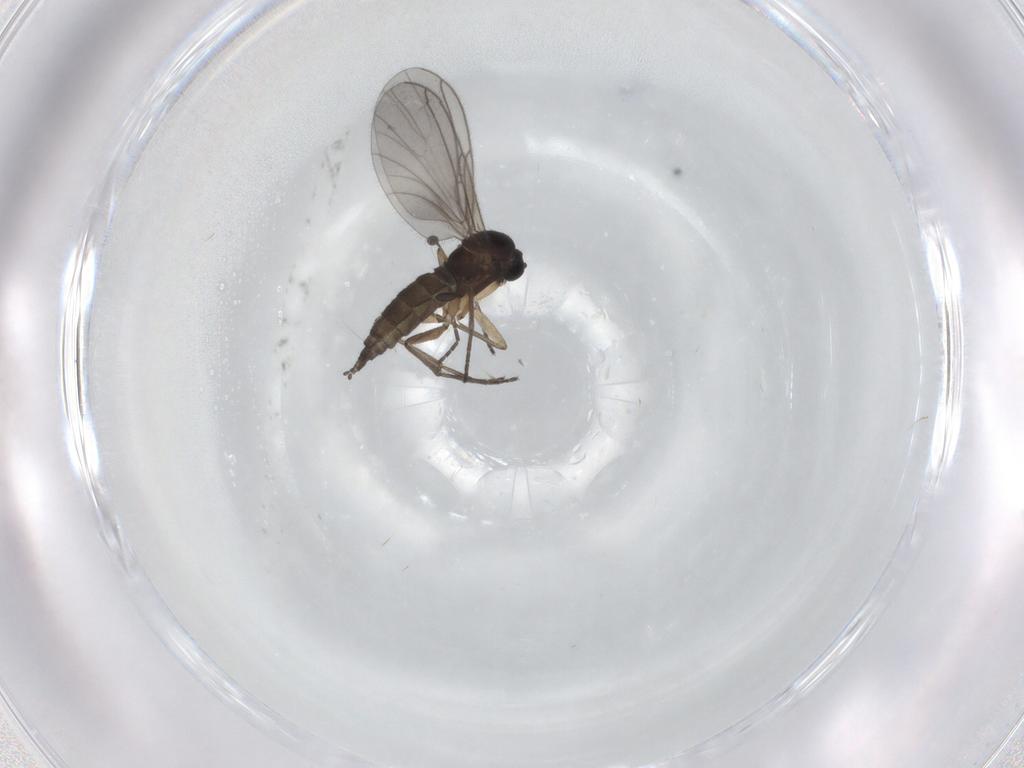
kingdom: Animalia
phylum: Arthropoda
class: Insecta
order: Diptera
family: Sciaridae
